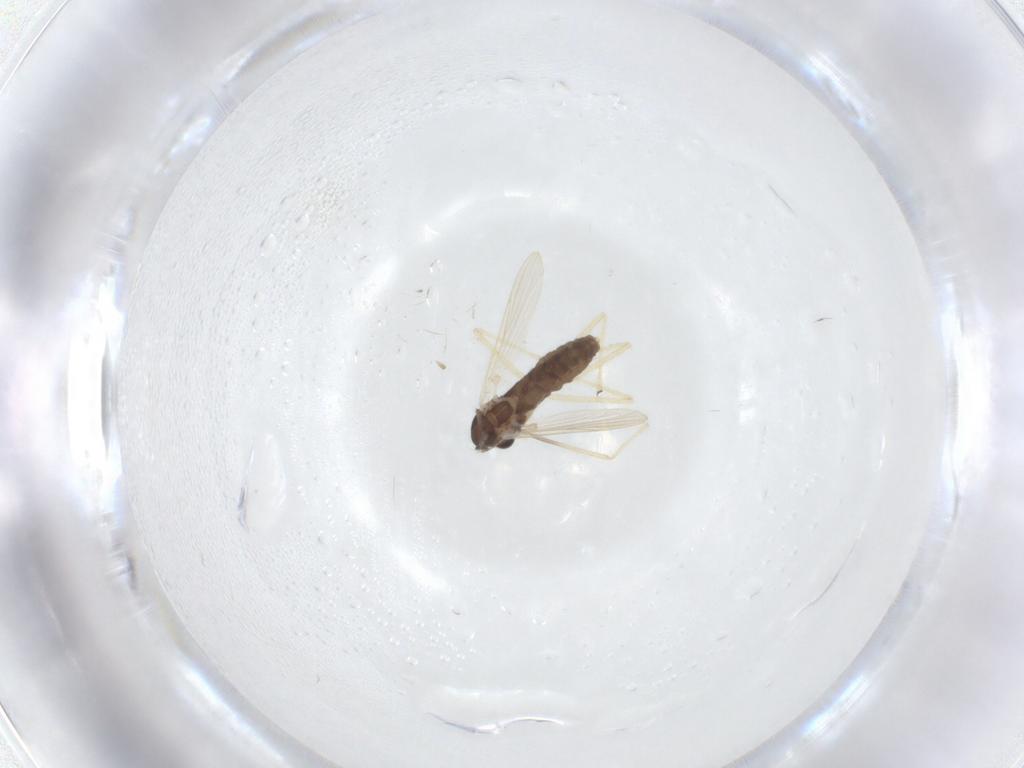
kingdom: Animalia
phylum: Arthropoda
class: Insecta
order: Diptera
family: Chironomidae
